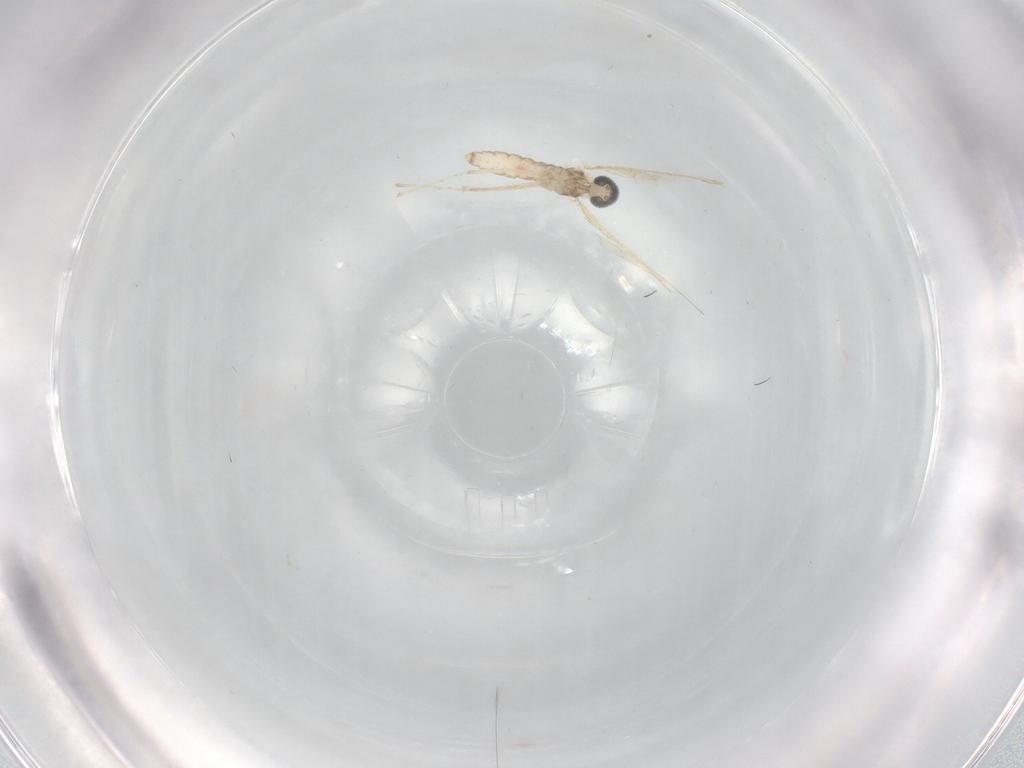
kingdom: Animalia
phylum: Arthropoda
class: Insecta
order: Diptera
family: Cecidomyiidae
